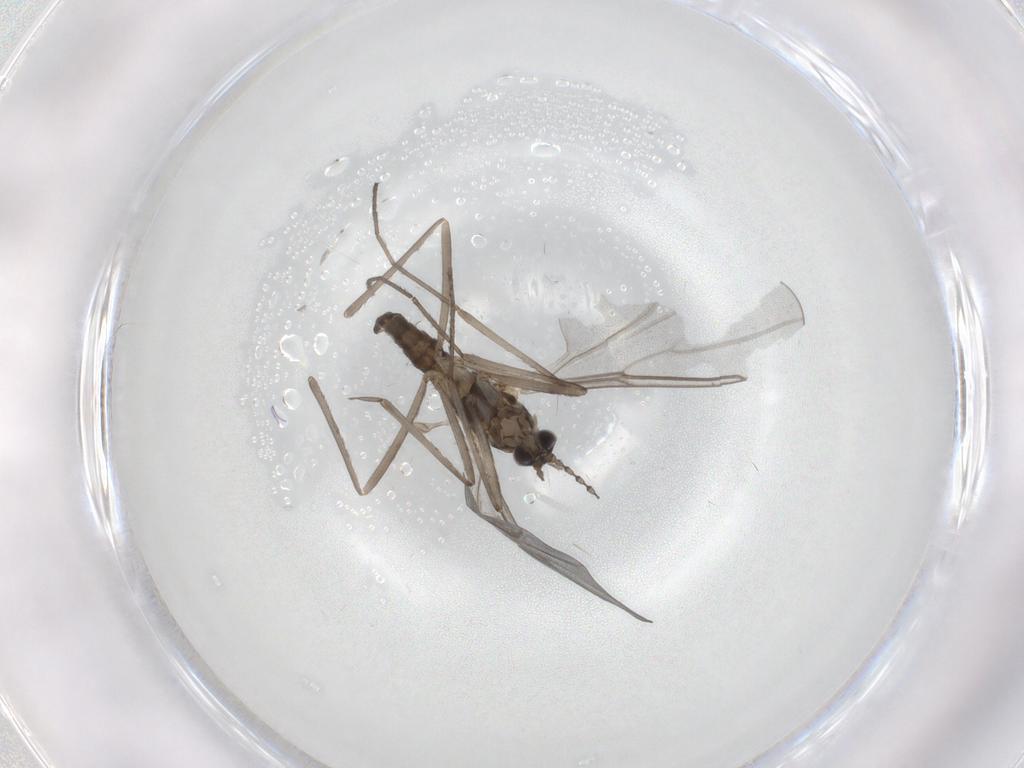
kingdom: Animalia
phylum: Arthropoda
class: Insecta
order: Diptera
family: Cecidomyiidae
